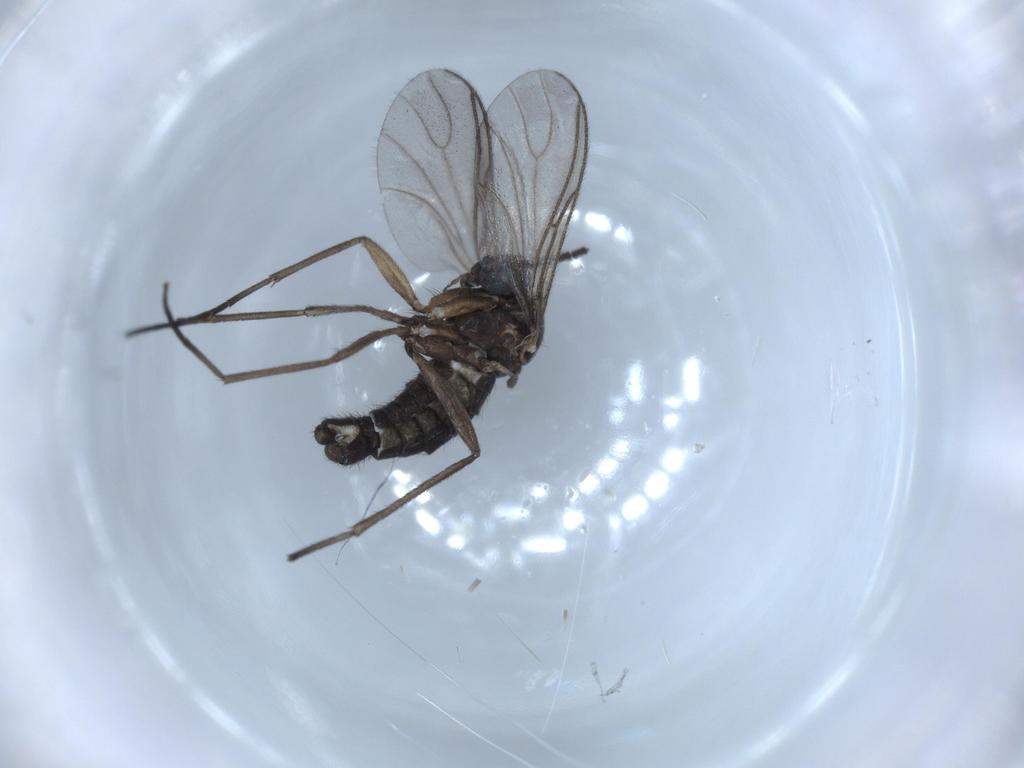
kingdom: Animalia
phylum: Arthropoda
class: Insecta
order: Diptera
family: Sciaridae
